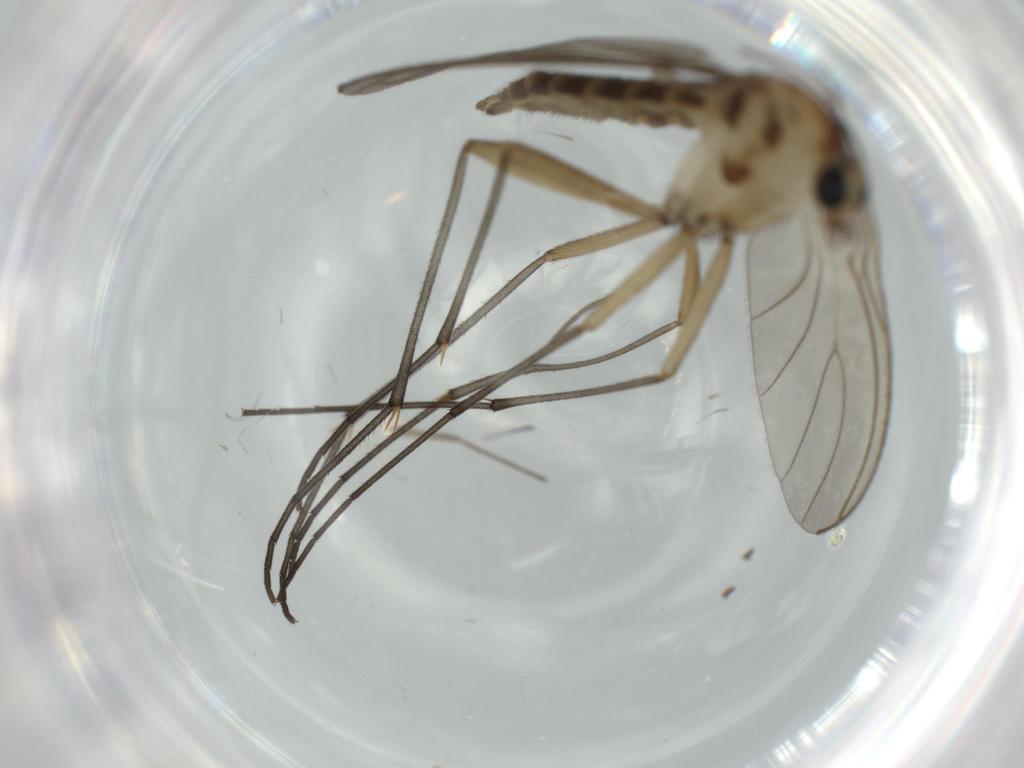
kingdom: Animalia
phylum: Arthropoda
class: Insecta
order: Diptera
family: Sciaridae
